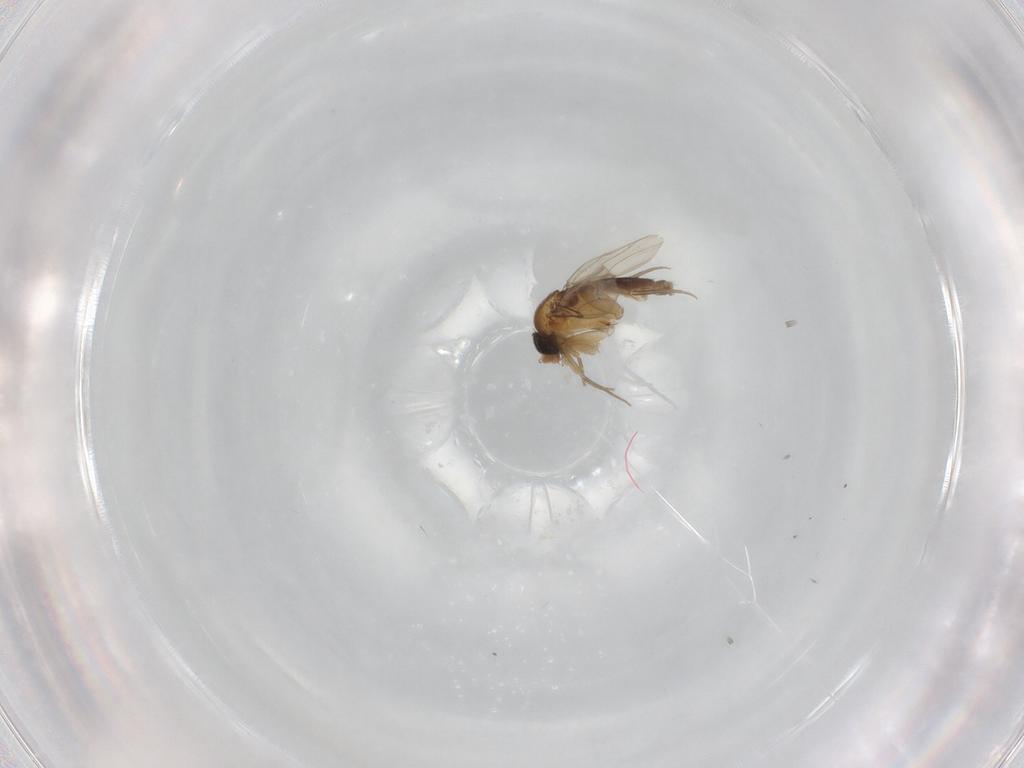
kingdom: Animalia
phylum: Arthropoda
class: Insecta
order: Diptera
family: Phoridae
